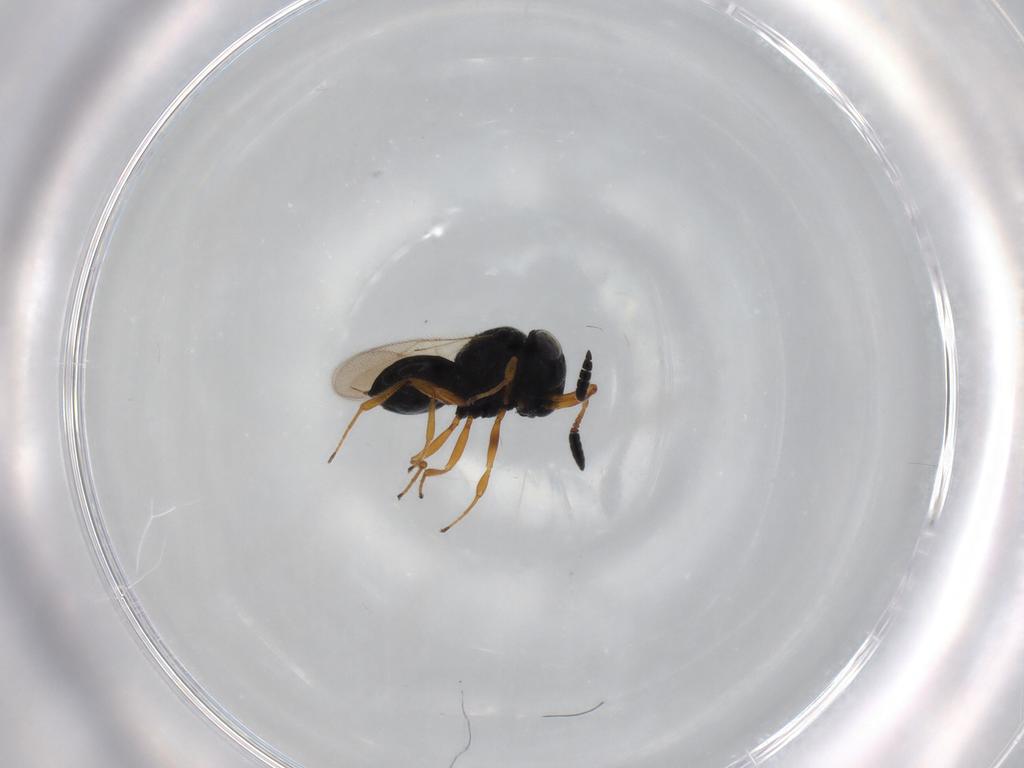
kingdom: Animalia
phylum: Arthropoda
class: Insecta
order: Hymenoptera
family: Scelionidae
